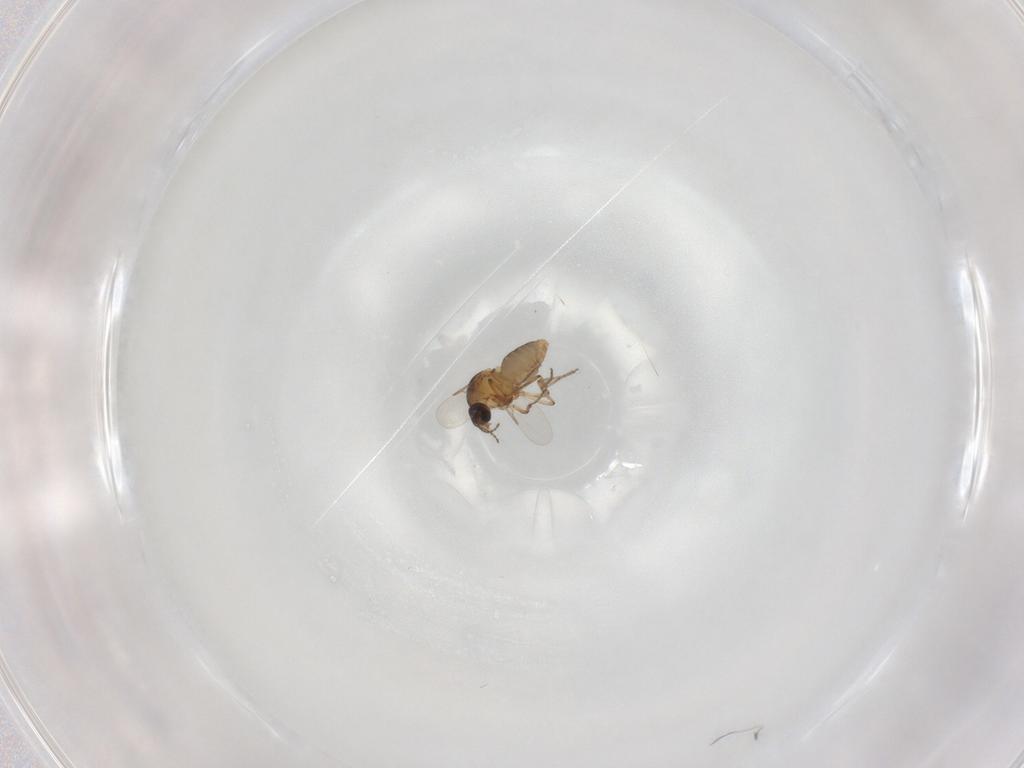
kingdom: Animalia
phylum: Arthropoda
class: Insecta
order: Diptera
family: Ceratopogonidae
